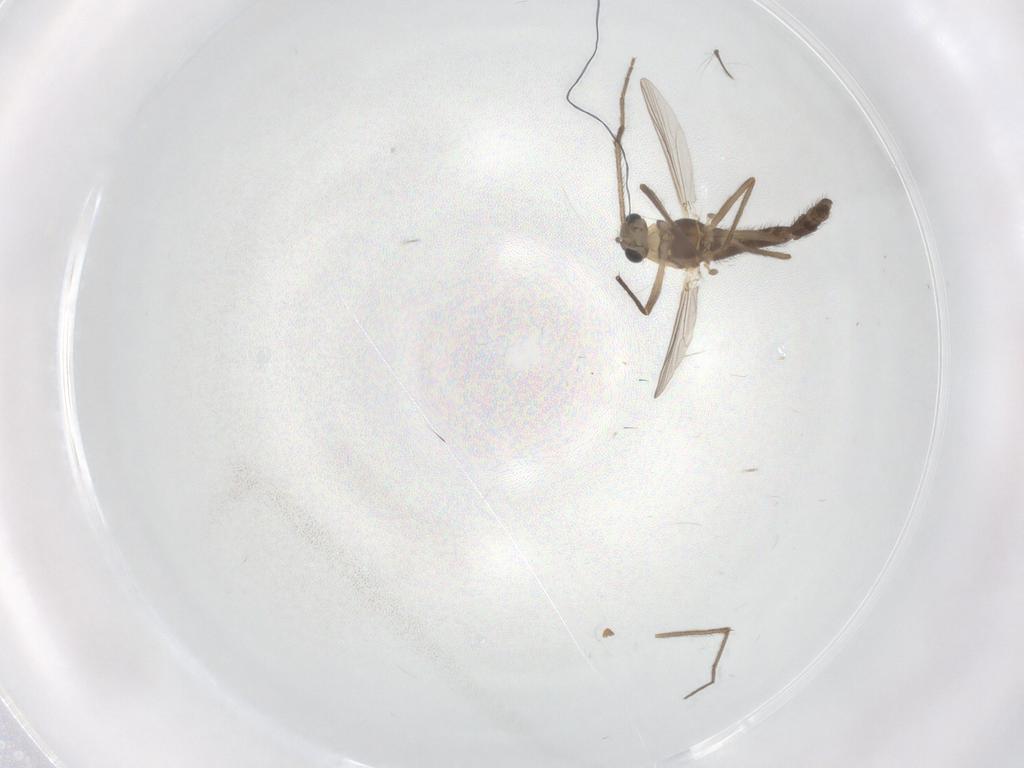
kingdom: Animalia
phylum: Arthropoda
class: Insecta
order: Diptera
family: Chironomidae
